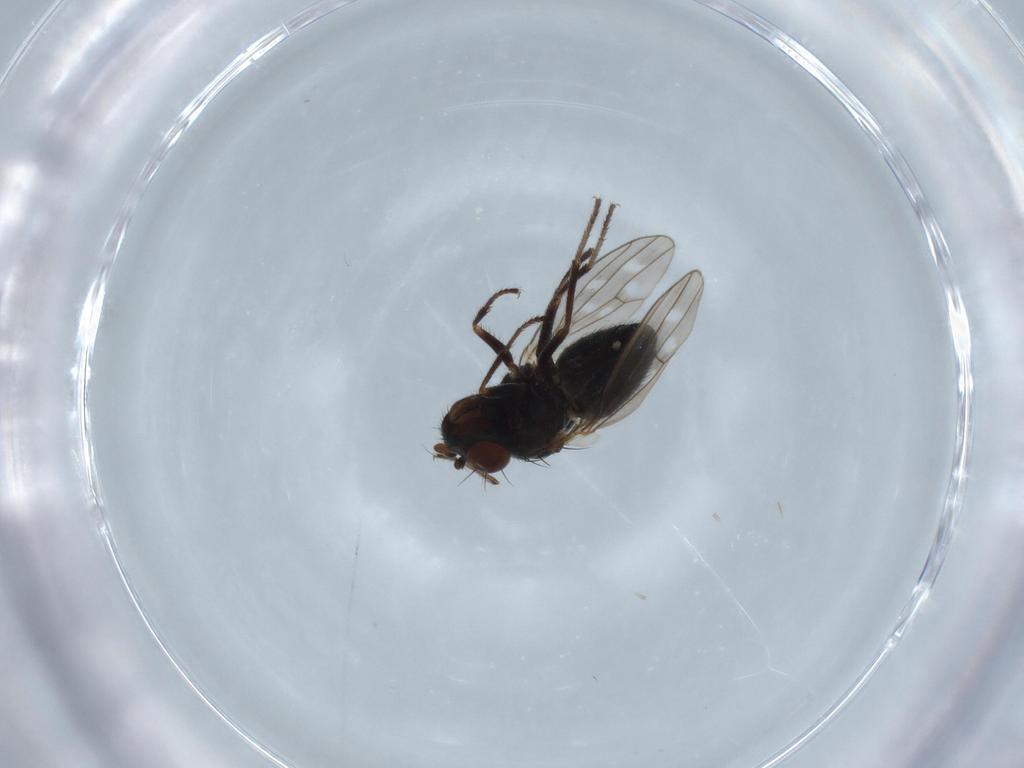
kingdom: Animalia
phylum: Arthropoda
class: Insecta
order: Diptera
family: Ephydridae
